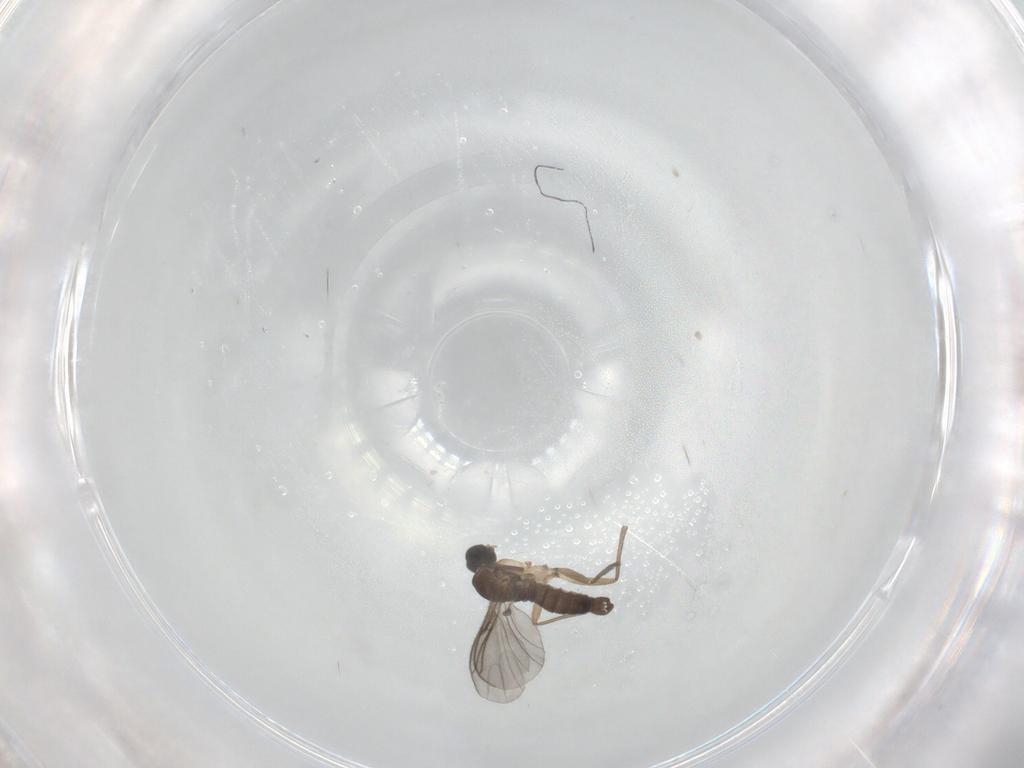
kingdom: Animalia
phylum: Arthropoda
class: Insecta
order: Diptera
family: Sciaridae
